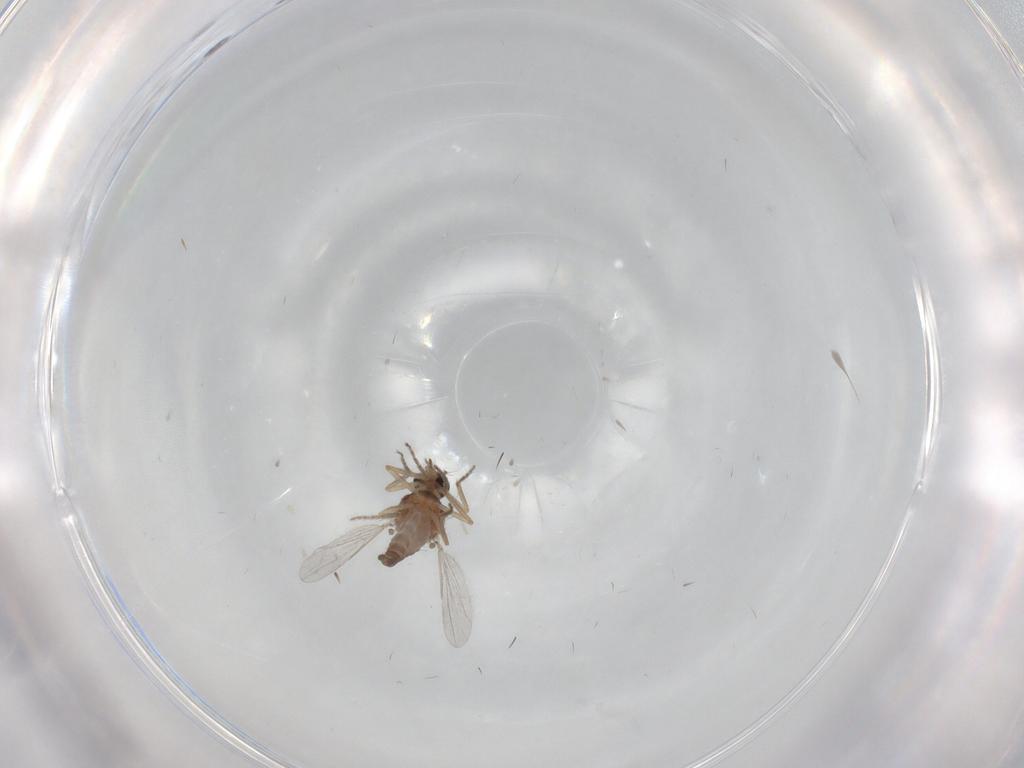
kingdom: Animalia
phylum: Arthropoda
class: Insecta
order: Diptera
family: Ceratopogonidae
